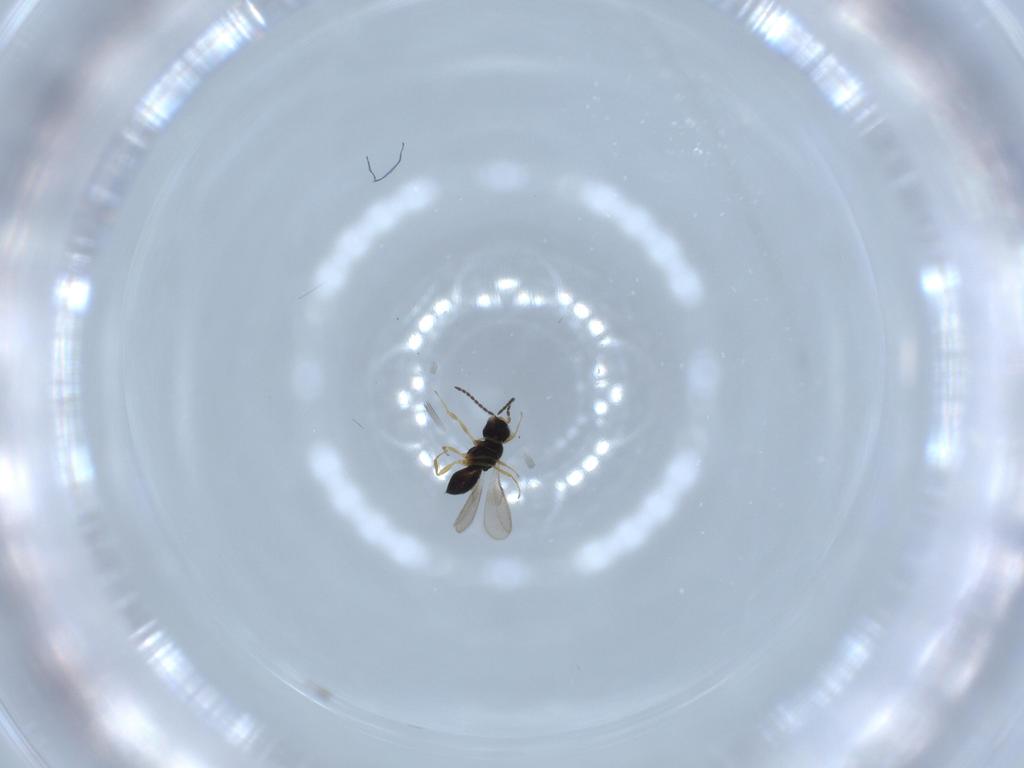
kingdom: Animalia
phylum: Arthropoda
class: Insecta
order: Hymenoptera
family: Scelionidae
